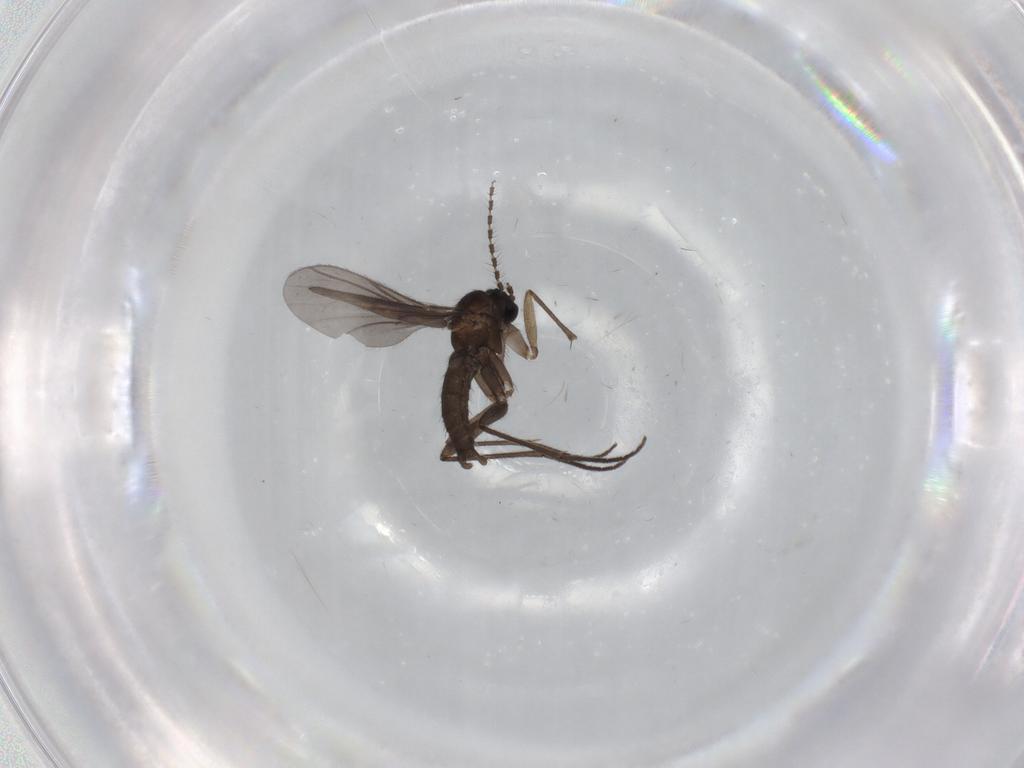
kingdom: Animalia
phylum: Arthropoda
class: Insecta
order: Diptera
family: Sciaridae
